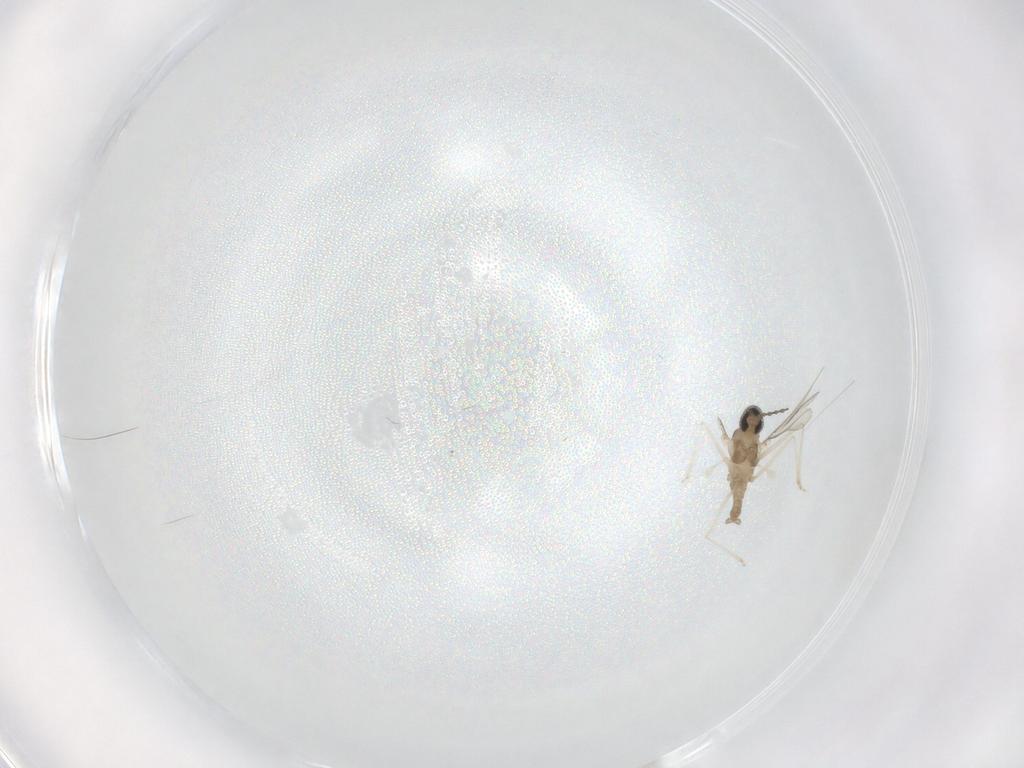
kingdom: Animalia
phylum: Arthropoda
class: Insecta
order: Diptera
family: Cecidomyiidae
